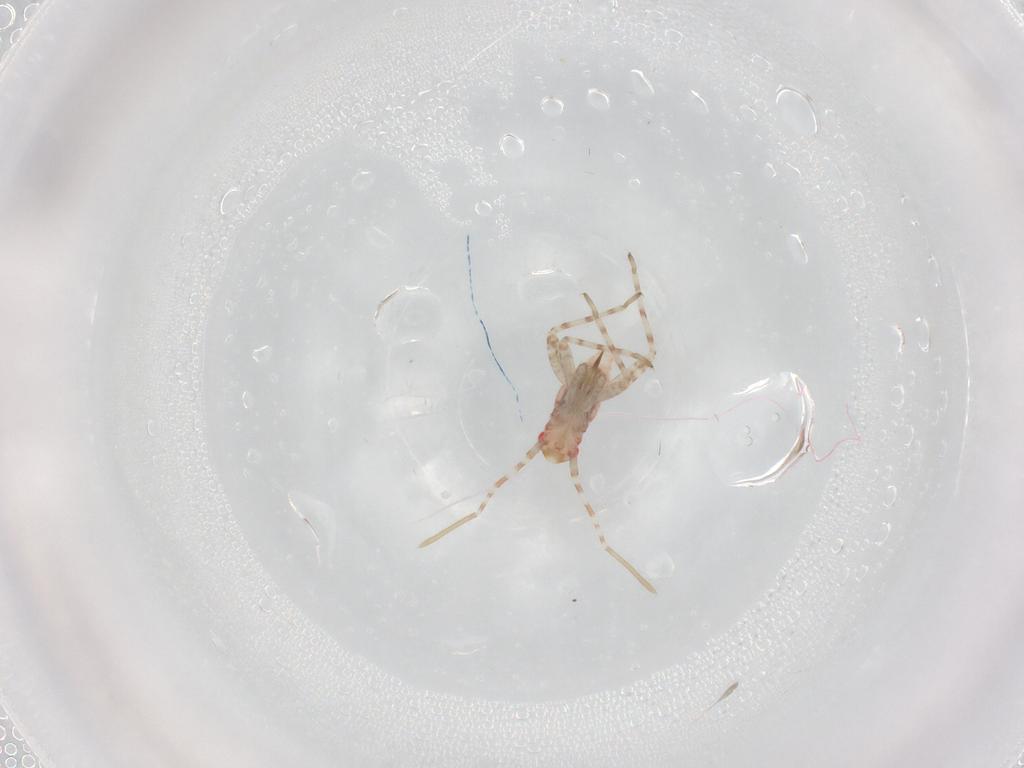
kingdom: Animalia
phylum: Arthropoda
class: Insecta
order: Hemiptera
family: Miridae
